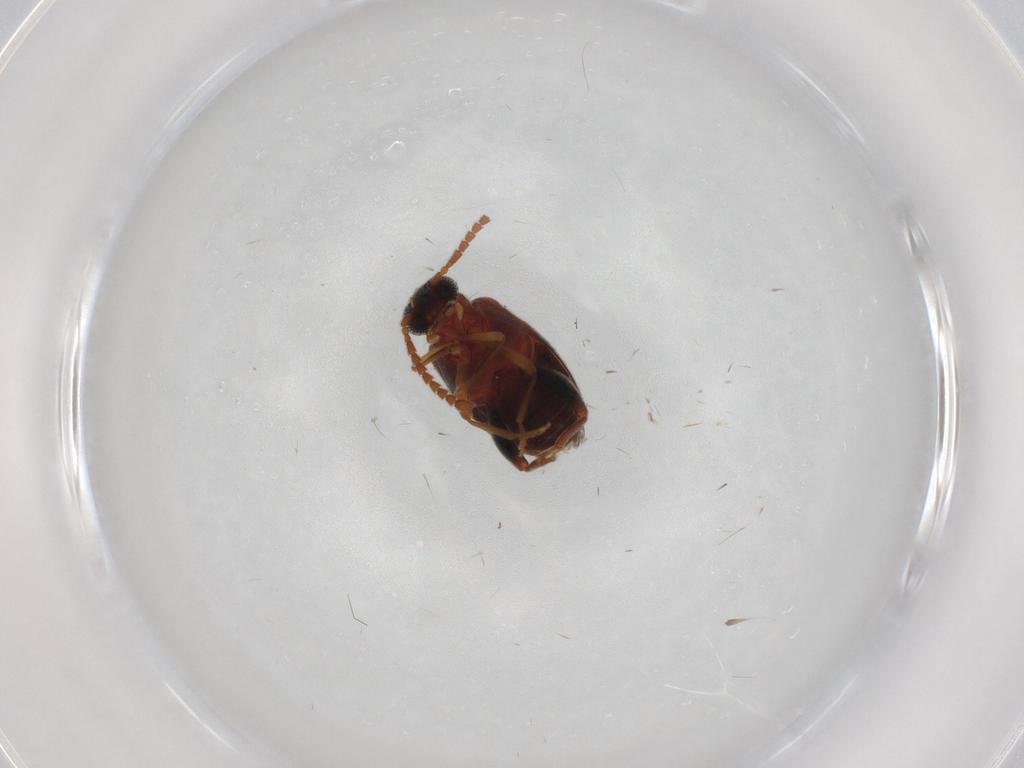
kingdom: Animalia
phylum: Arthropoda
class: Insecta
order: Coleoptera
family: Aderidae
